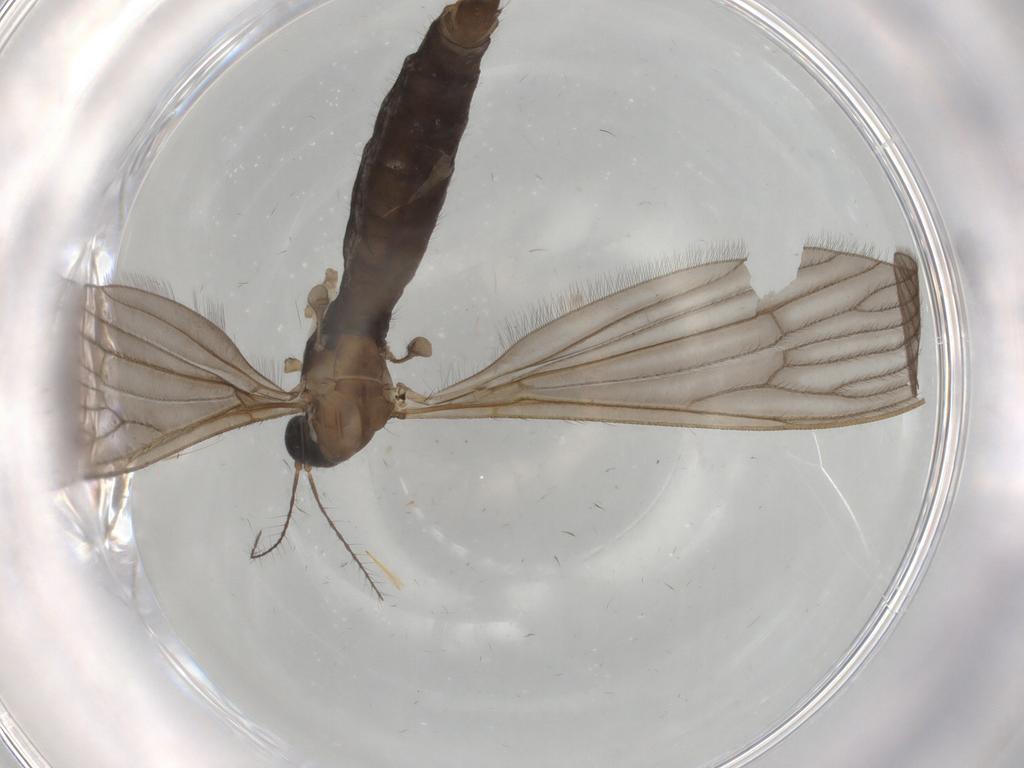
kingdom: Animalia
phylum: Arthropoda
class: Insecta
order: Diptera
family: Limoniidae
